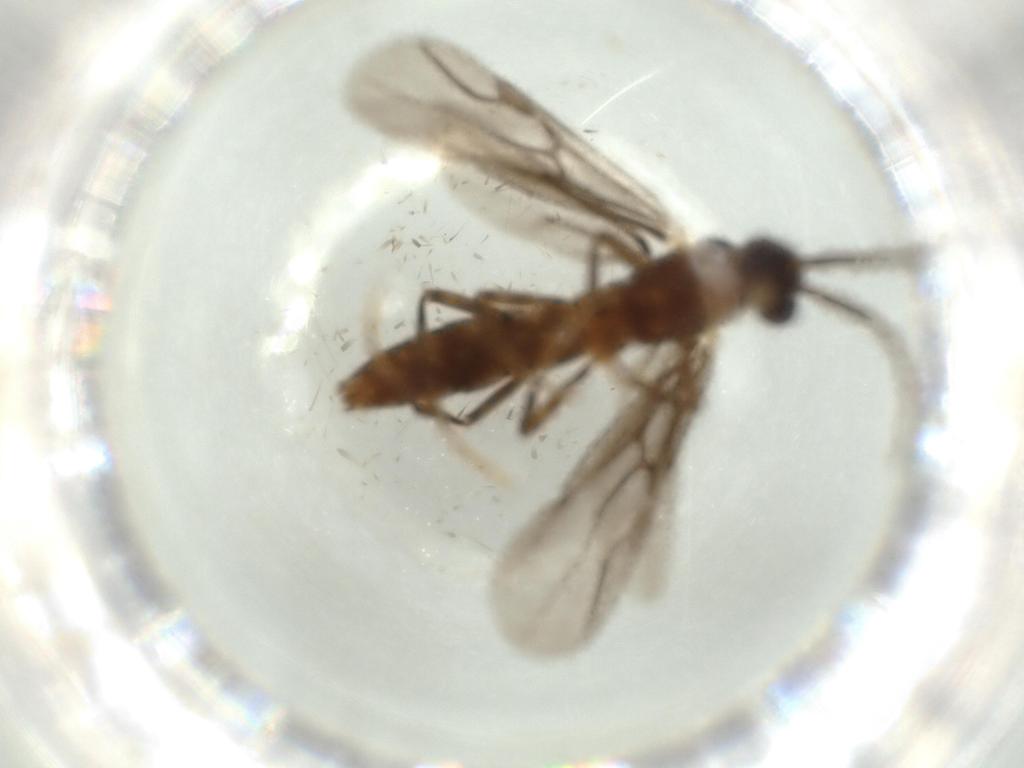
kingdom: Animalia
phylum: Arthropoda
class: Insecta
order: Hymenoptera
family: Formicidae
